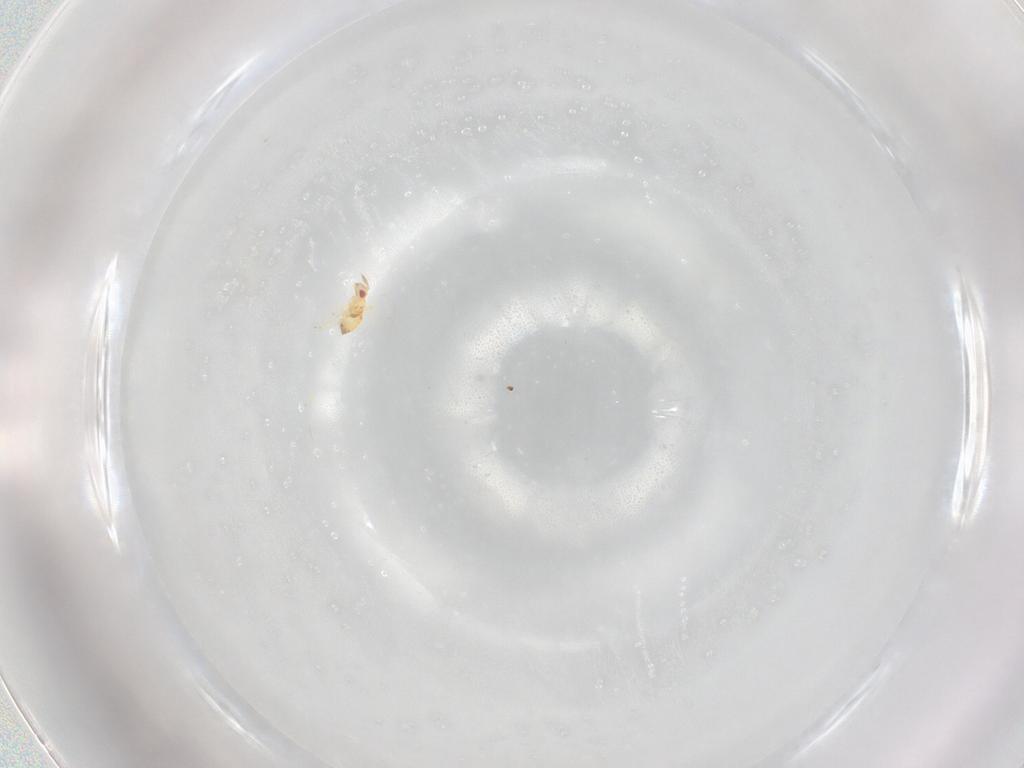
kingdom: Animalia
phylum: Arthropoda
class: Insecta
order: Hymenoptera
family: Trichogrammatidae
